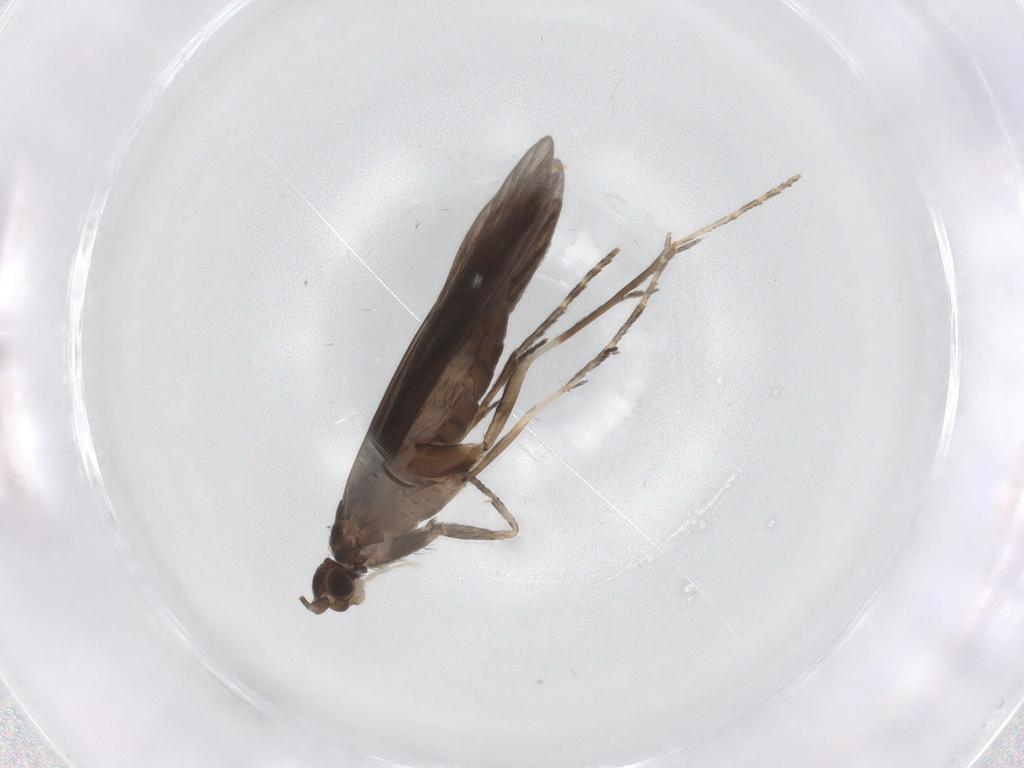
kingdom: Animalia
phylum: Arthropoda
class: Insecta
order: Trichoptera
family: Xiphocentronidae
